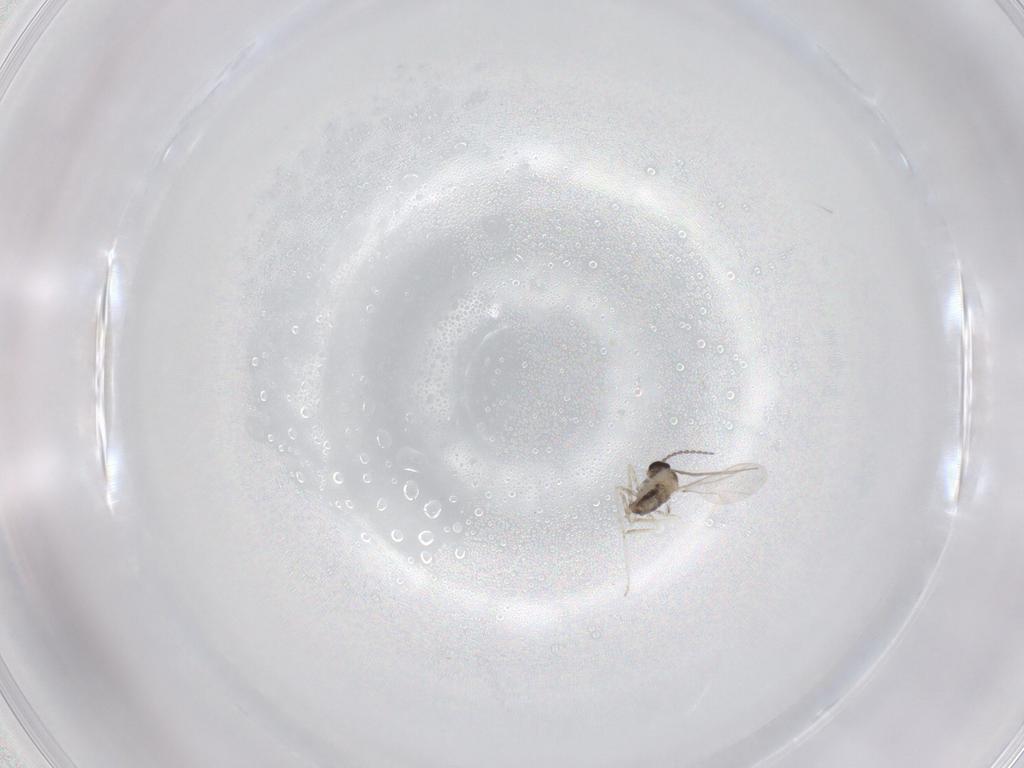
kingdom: Animalia
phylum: Arthropoda
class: Insecta
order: Diptera
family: Cecidomyiidae
